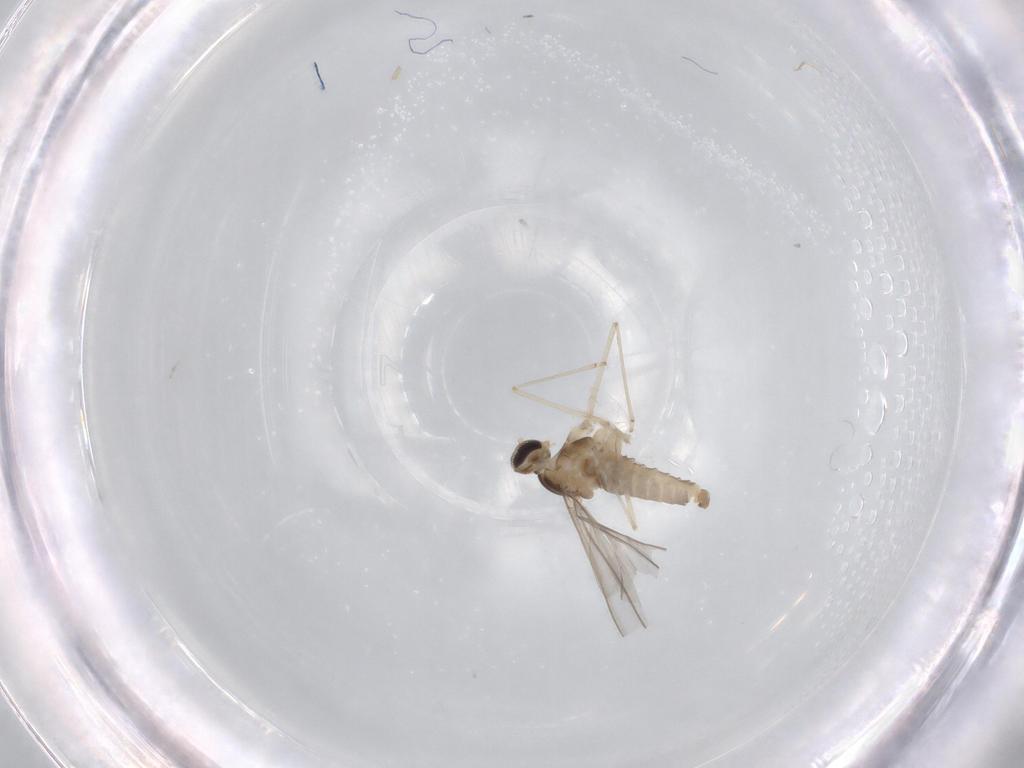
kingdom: Animalia
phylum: Arthropoda
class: Insecta
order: Diptera
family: Cecidomyiidae
